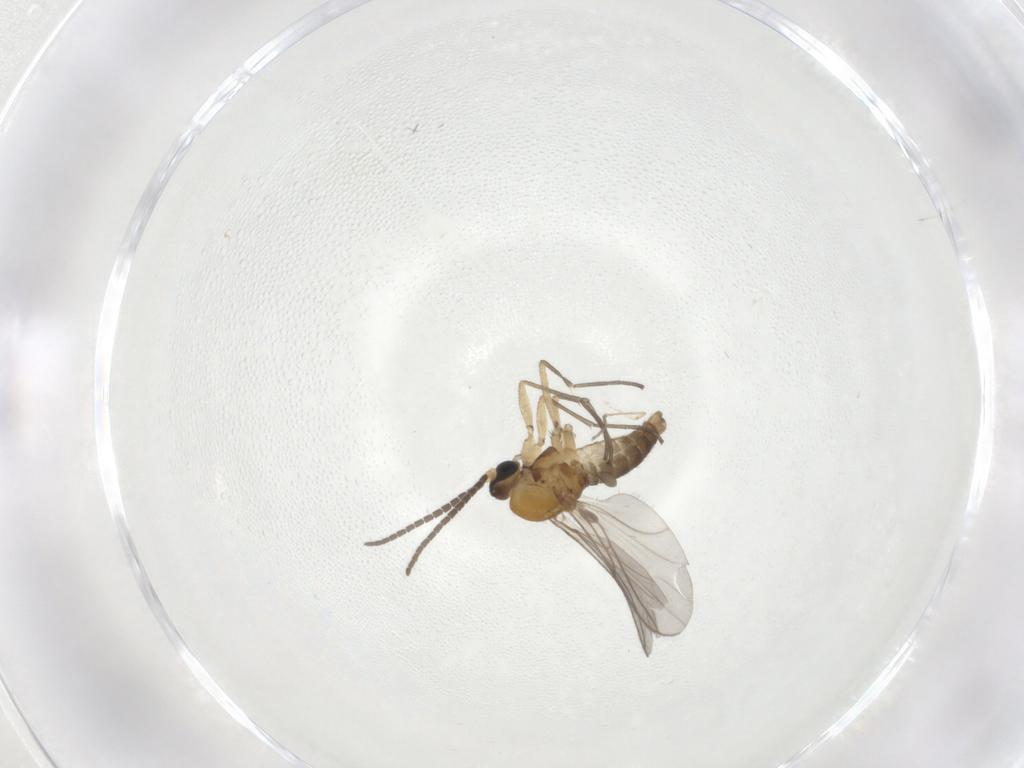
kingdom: Animalia
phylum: Arthropoda
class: Insecta
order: Diptera
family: Sciaridae
